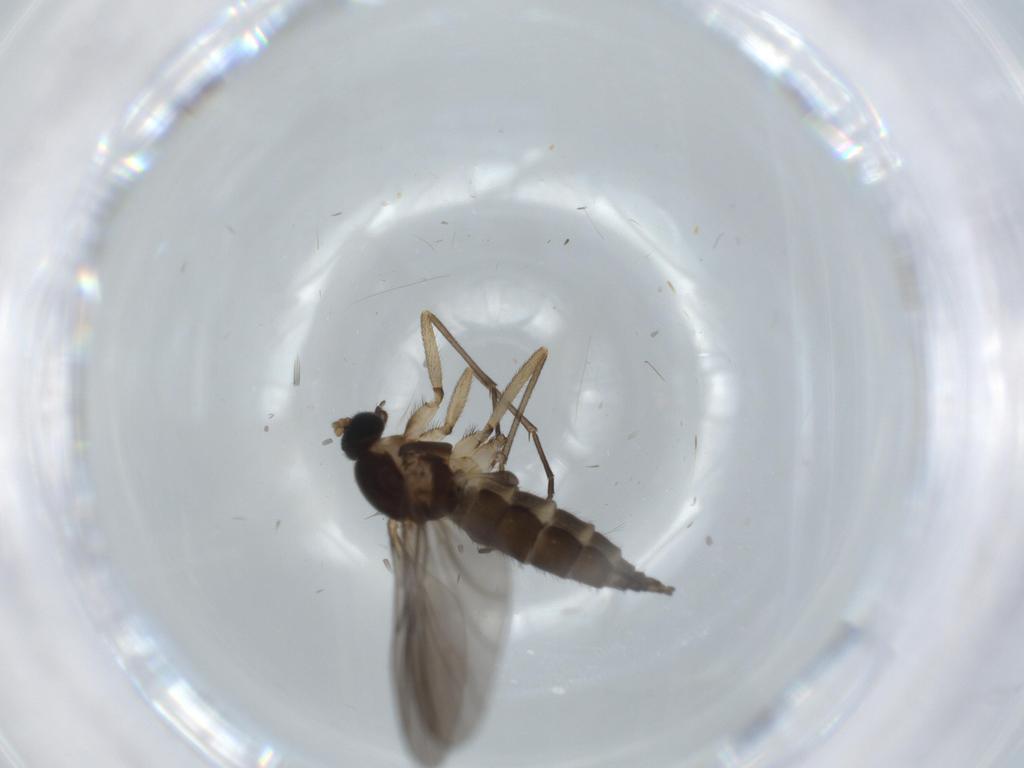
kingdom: Animalia
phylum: Arthropoda
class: Insecta
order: Diptera
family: Sciaridae
